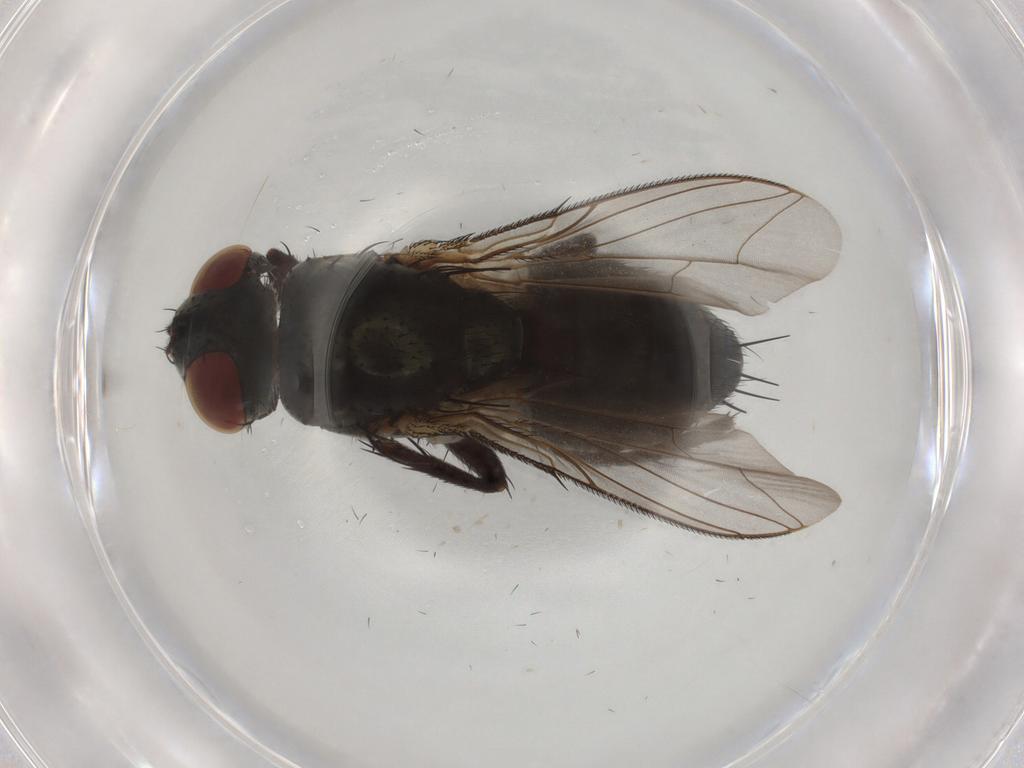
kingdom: Animalia
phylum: Arthropoda
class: Insecta
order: Diptera
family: Sarcophagidae
